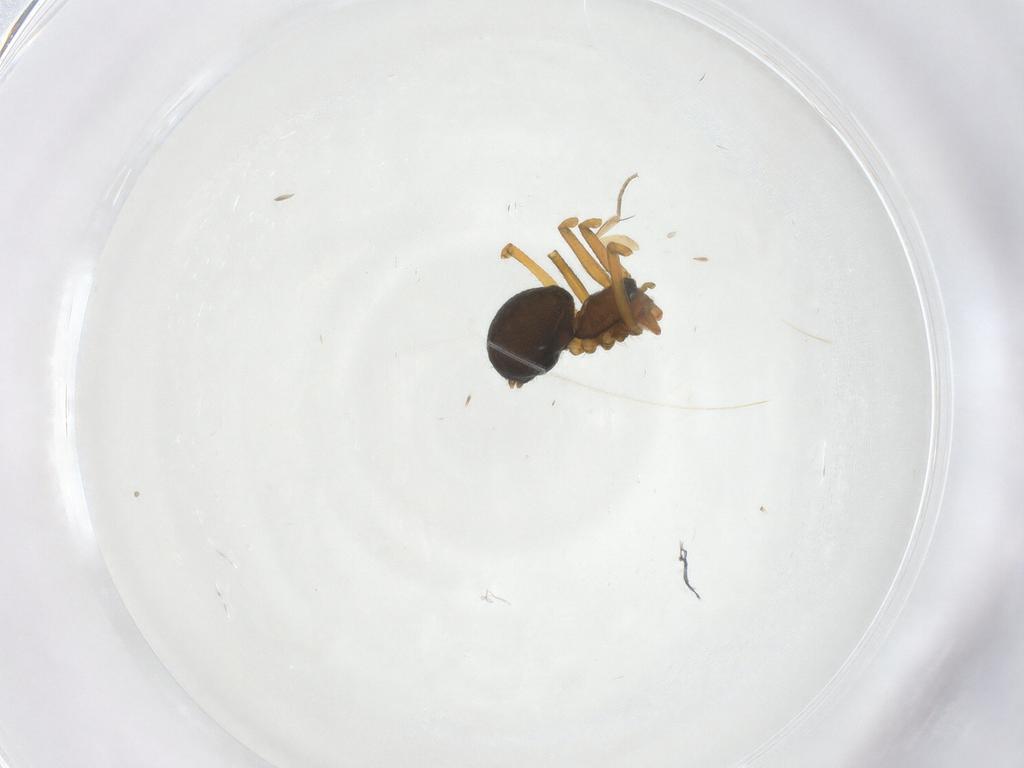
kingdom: Animalia
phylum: Arthropoda
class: Arachnida
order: Araneae
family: Linyphiidae
